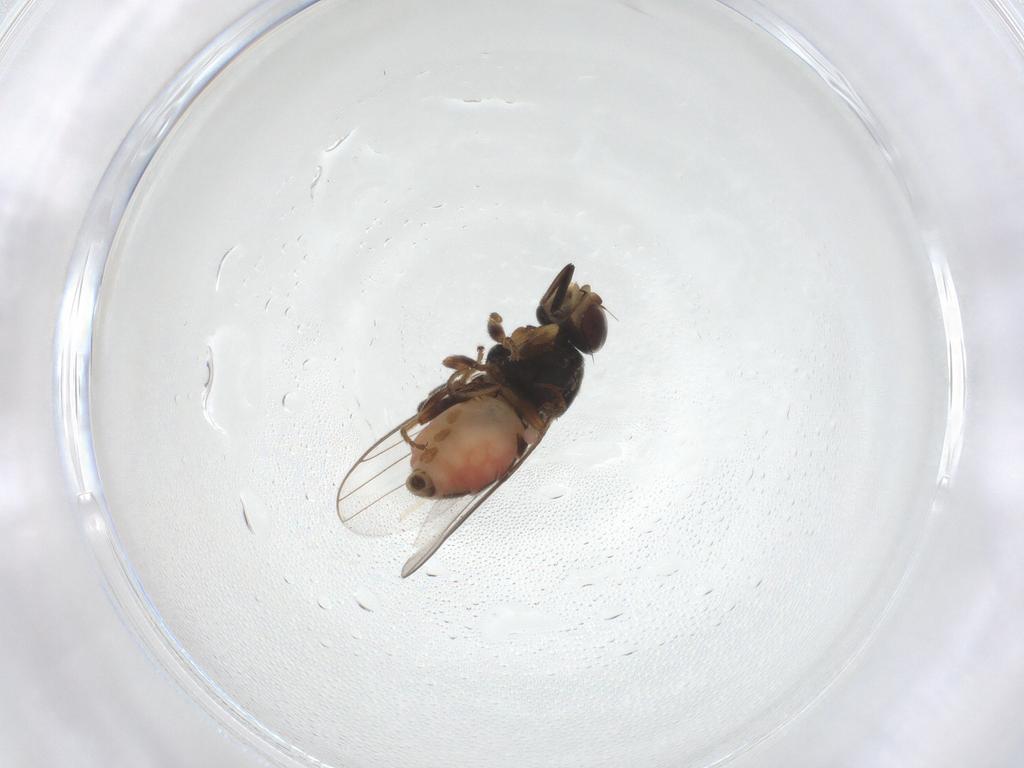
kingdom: Animalia
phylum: Arthropoda
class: Insecta
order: Diptera
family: Chloropidae
